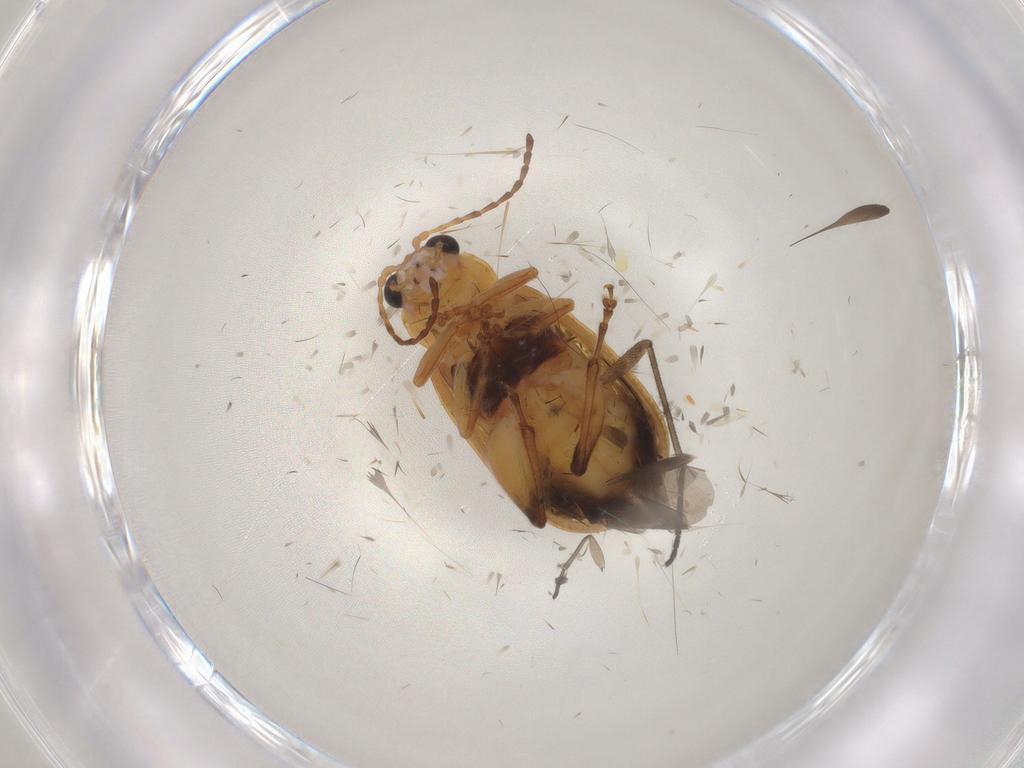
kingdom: Animalia
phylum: Arthropoda
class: Insecta
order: Coleoptera
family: Chrysomelidae
